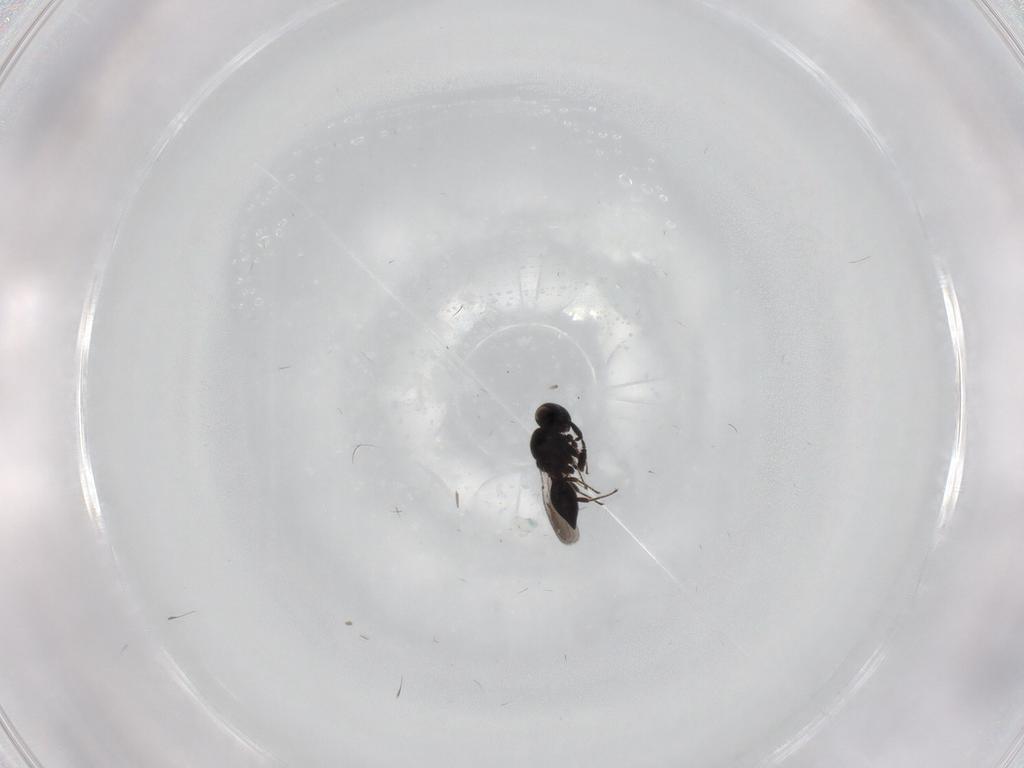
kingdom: Animalia
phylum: Arthropoda
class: Insecta
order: Hymenoptera
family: Platygastridae
